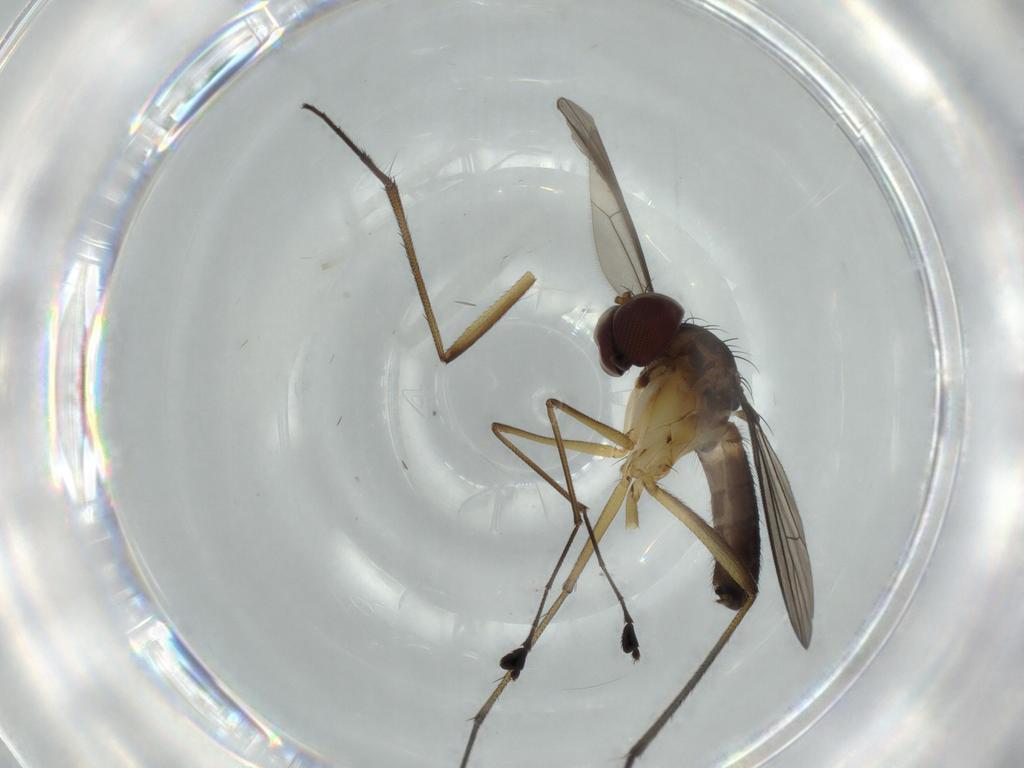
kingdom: Animalia
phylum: Arthropoda
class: Insecta
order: Diptera
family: Dolichopodidae
